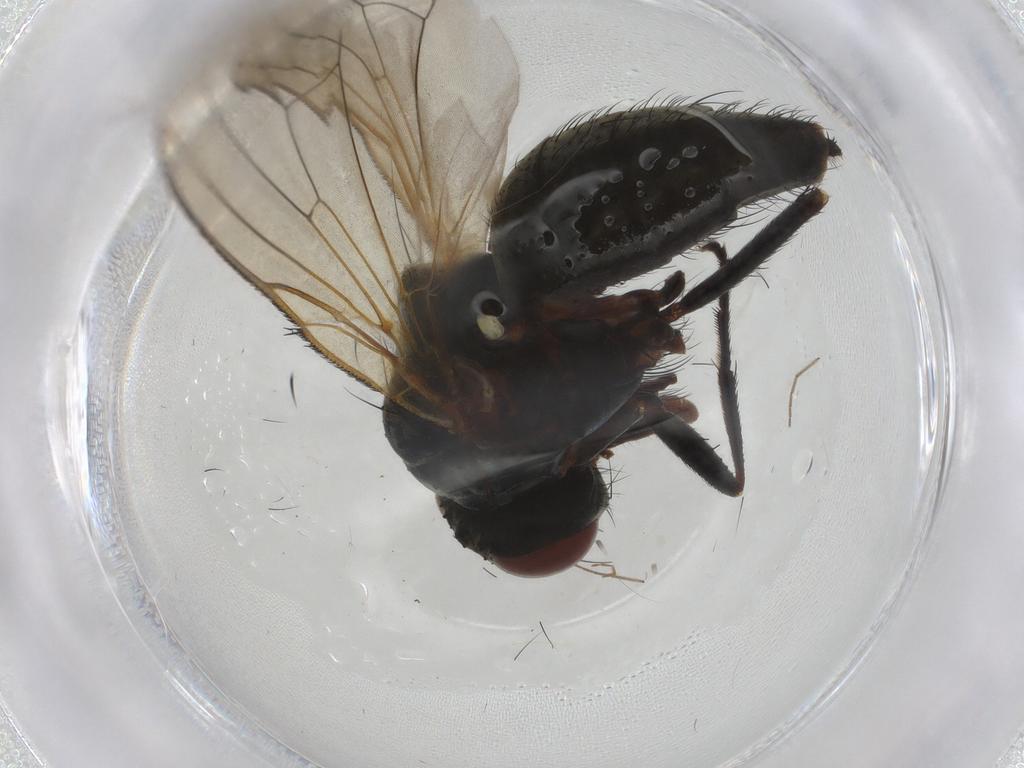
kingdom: Animalia
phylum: Arthropoda
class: Insecta
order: Diptera
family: Anthomyiidae
